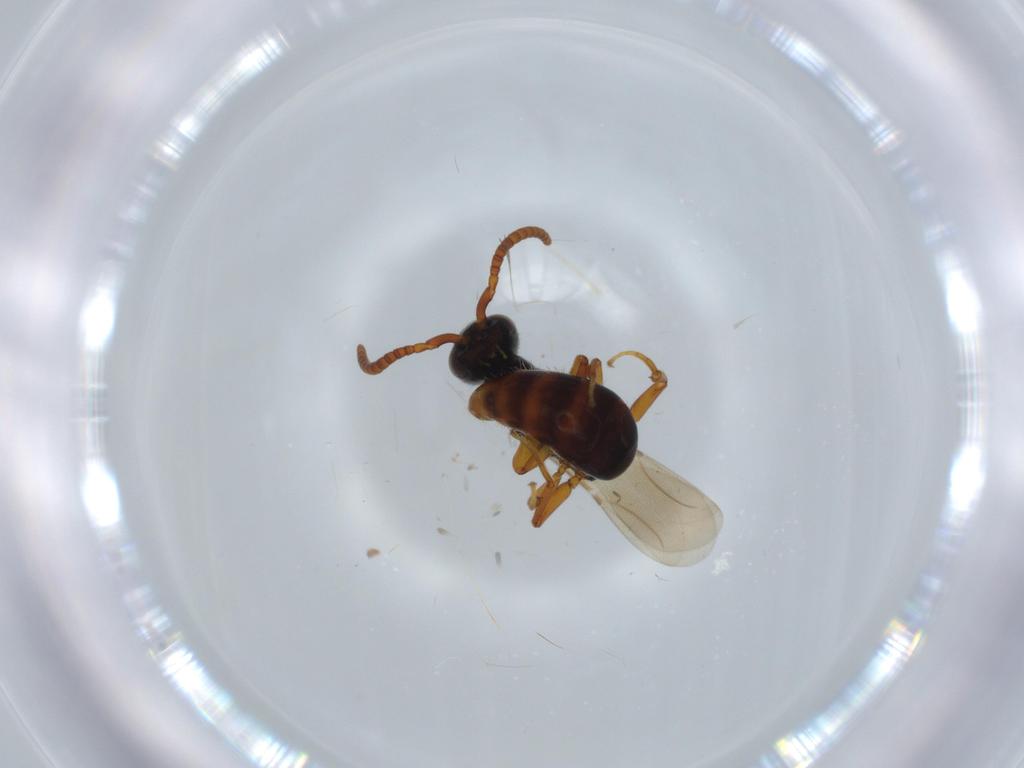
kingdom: Animalia
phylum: Arthropoda
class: Insecta
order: Hymenoptera
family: Bethylidae
